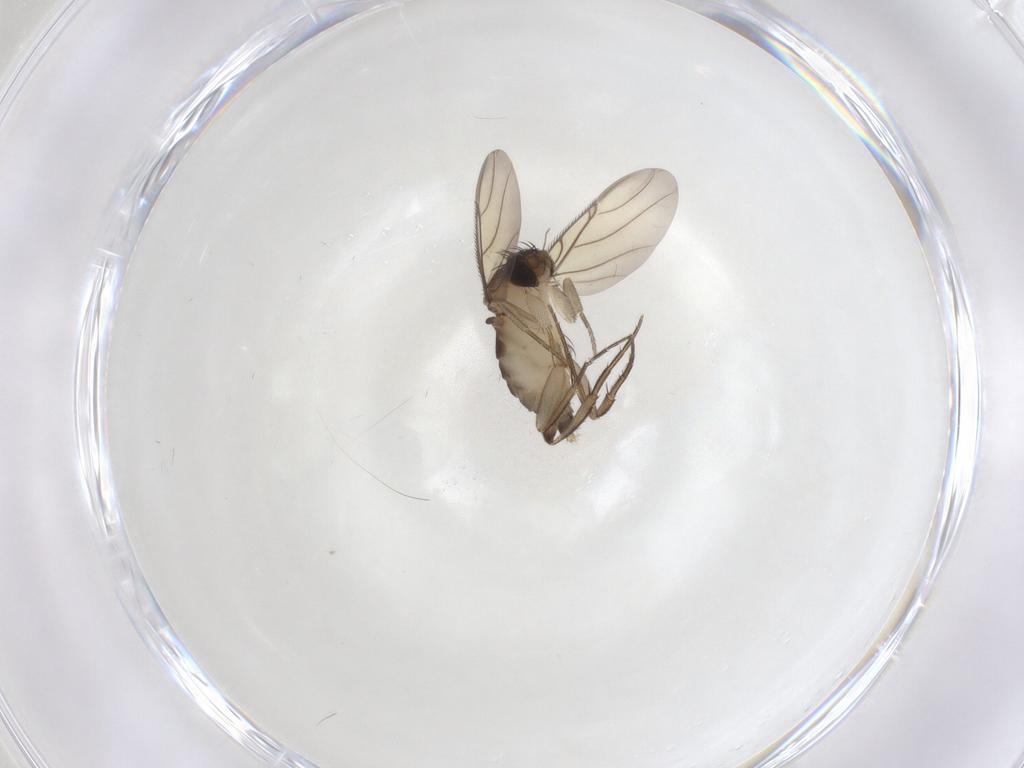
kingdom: Animalia
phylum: Arthropoda
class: Insecta
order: Diptera
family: Phoridae
